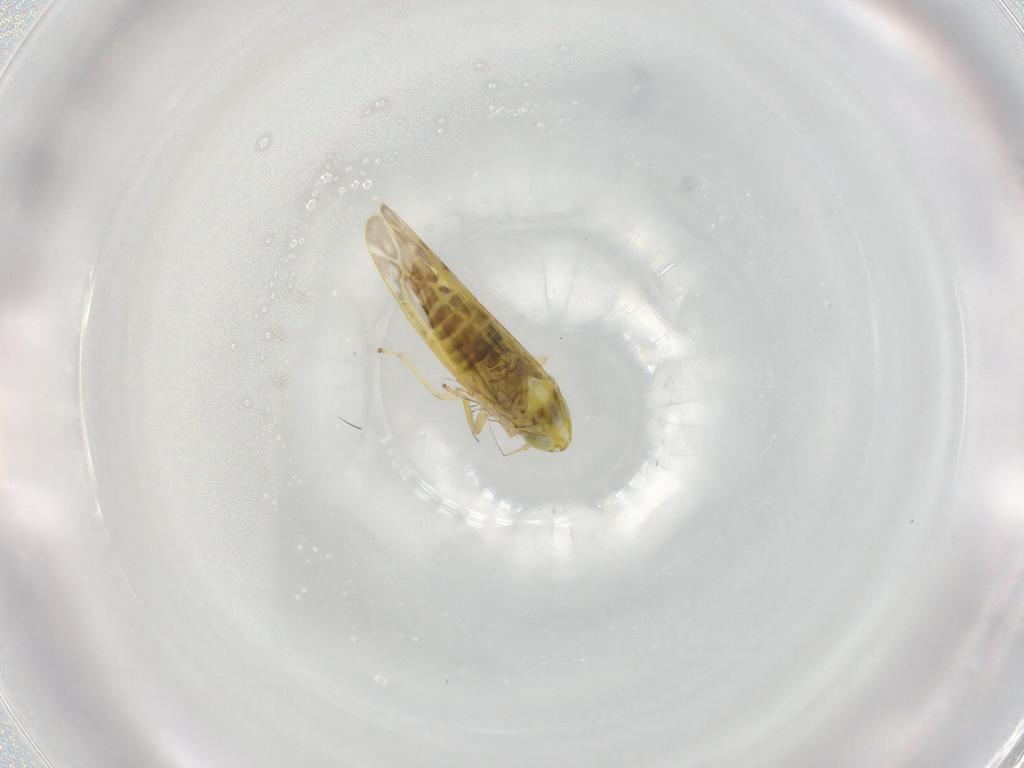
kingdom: Animalia
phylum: Arthropoda
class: Insecta
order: Hemiptera
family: Cicadellidae
